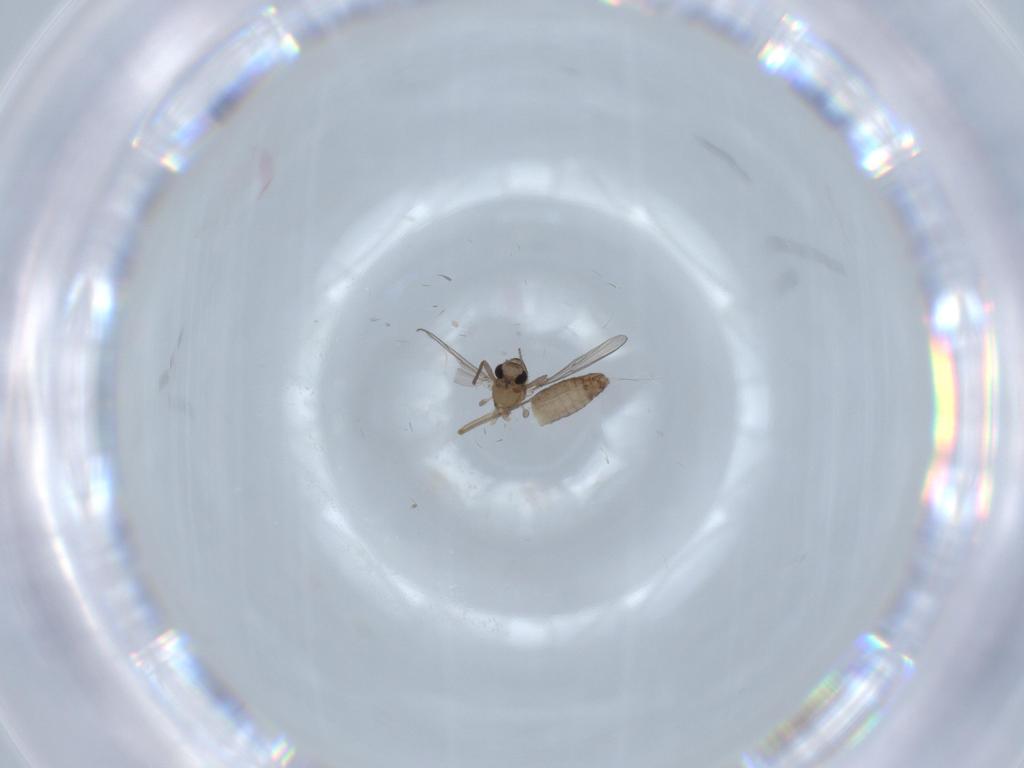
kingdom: Animalia
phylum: Arthropoda
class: Insecta
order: Diptera
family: Chironomidae
